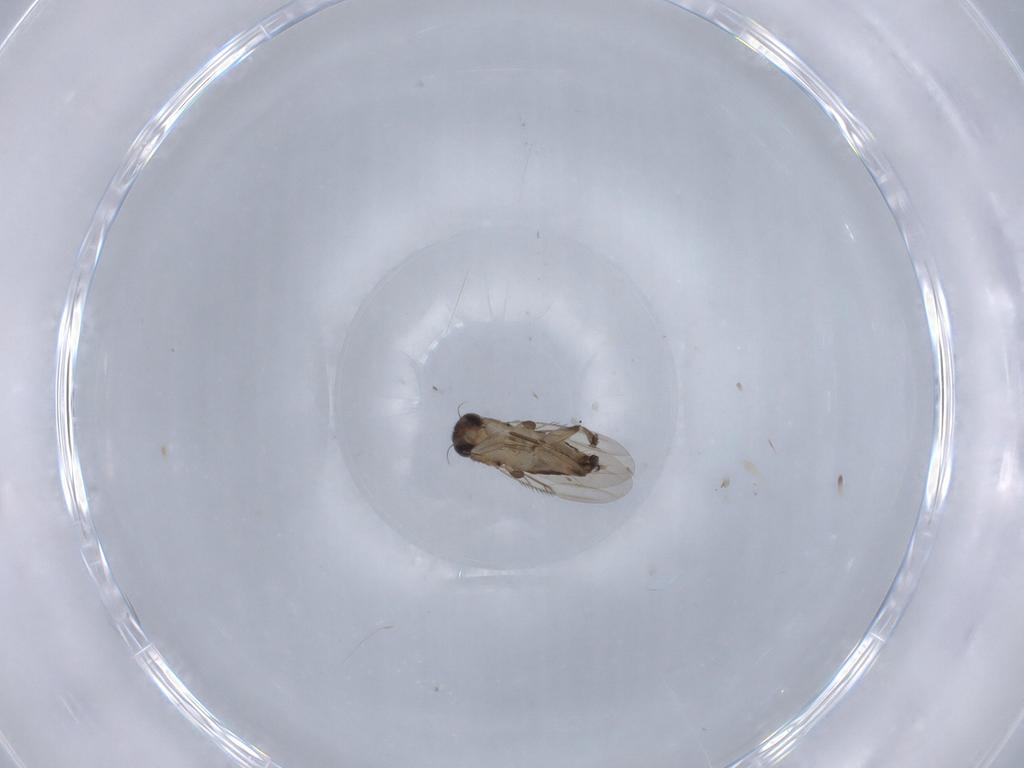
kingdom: Animalia
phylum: Arthropoda
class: Insecta
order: Diptera
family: Phoridae
